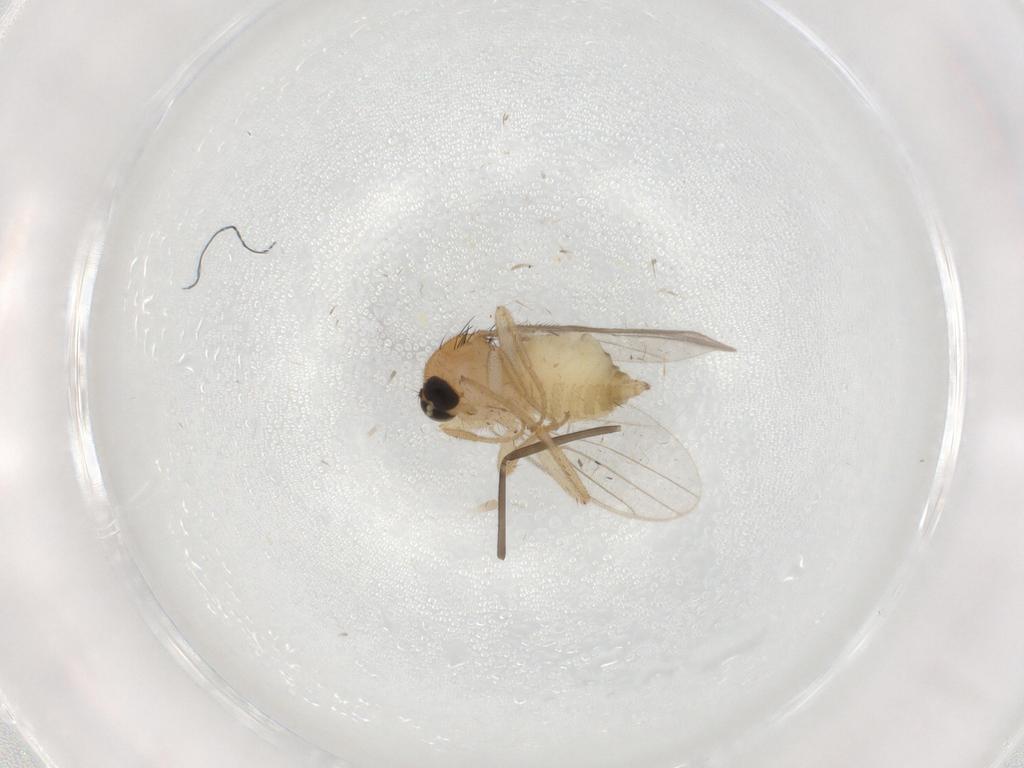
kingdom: Animalia
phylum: Arthropoda
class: Insecta
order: Diptera
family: Hybotidae
